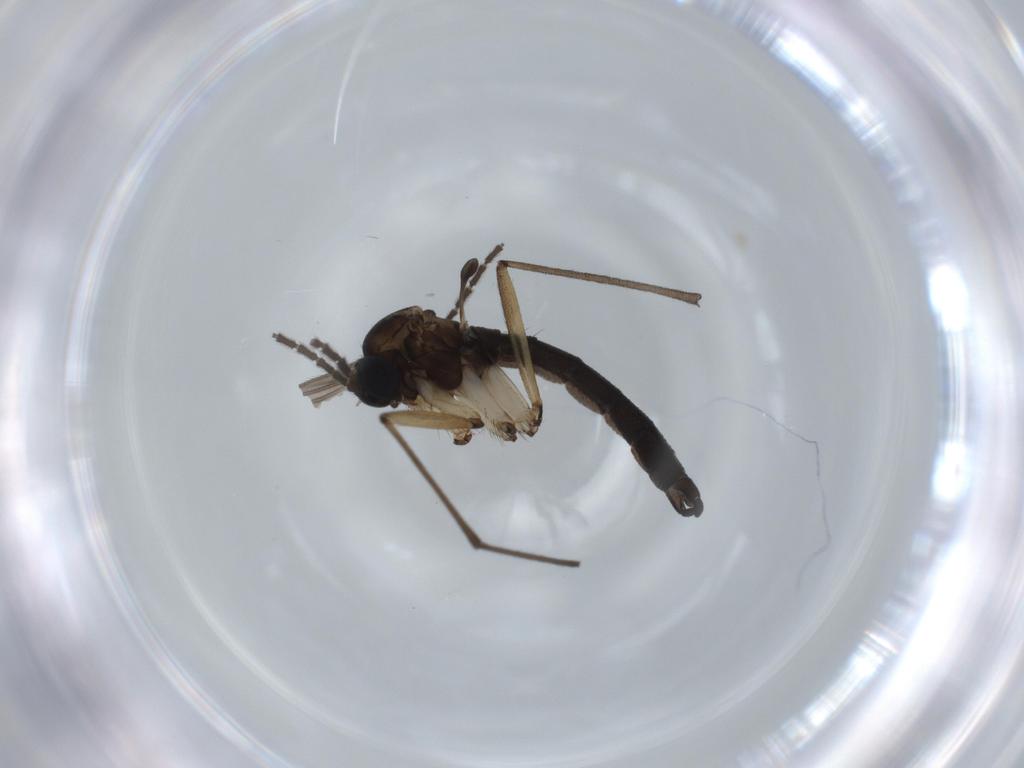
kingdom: Animalia
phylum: Arthropoda
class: Insecta
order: Diptera
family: Sciaridae
